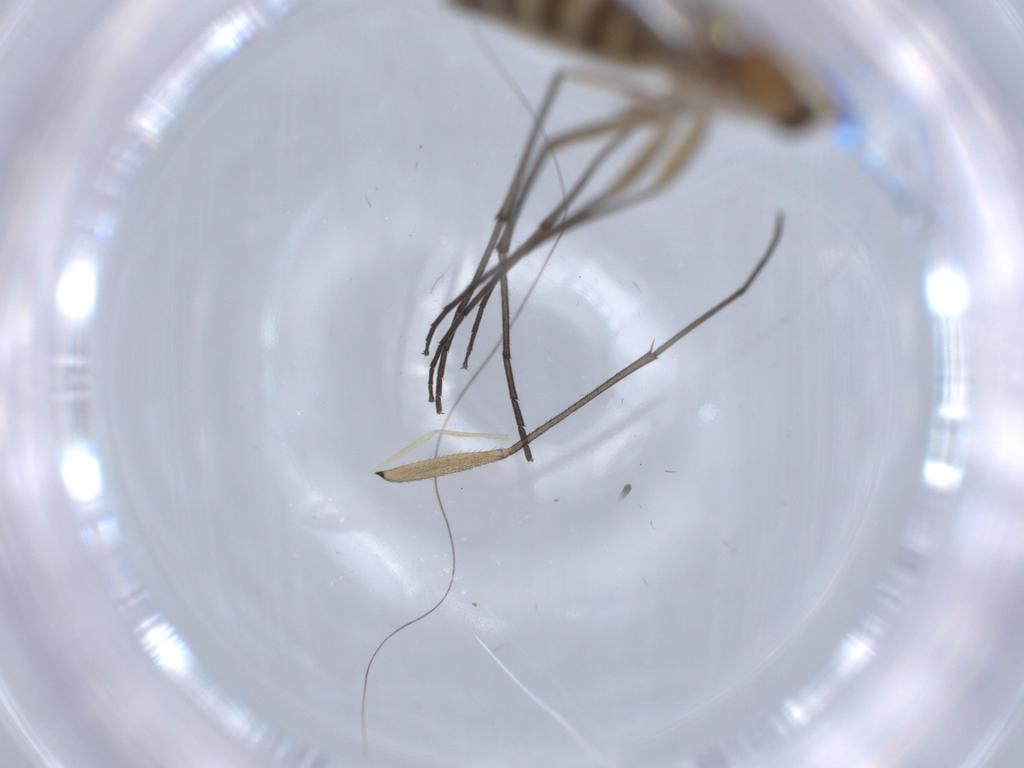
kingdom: Animalia
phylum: Arthropoda
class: Insecta
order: Diptera
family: Sciaridae
